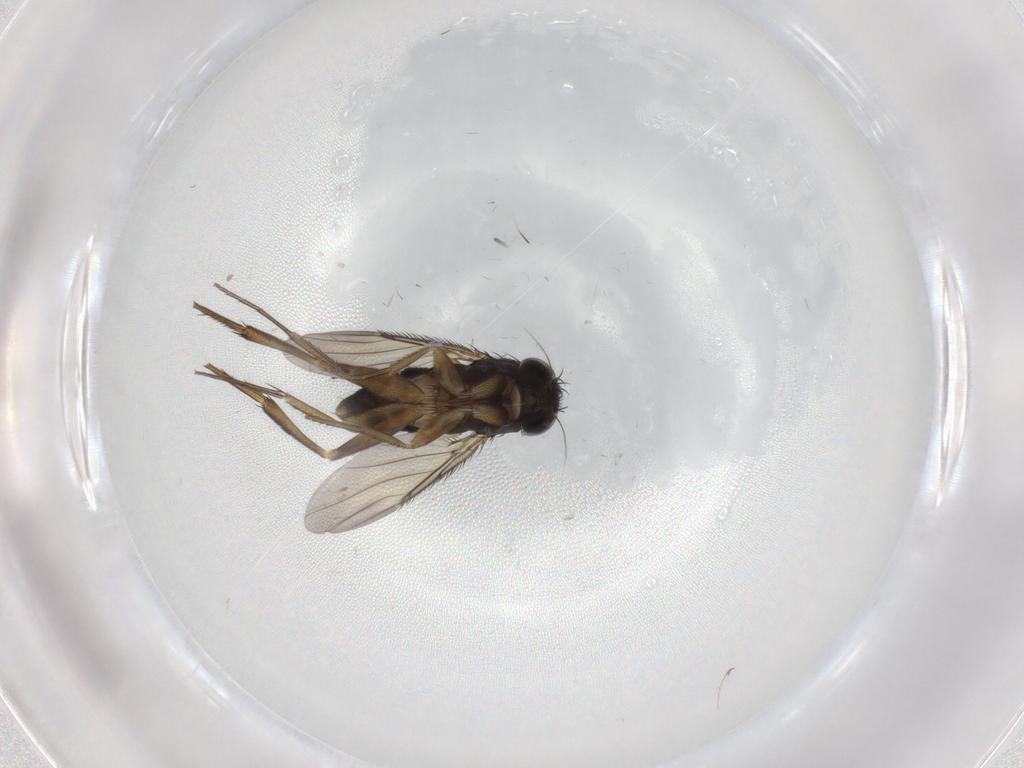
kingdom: Animalia
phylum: Arthropoda
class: Insecta
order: Diptera
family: Phoridae
